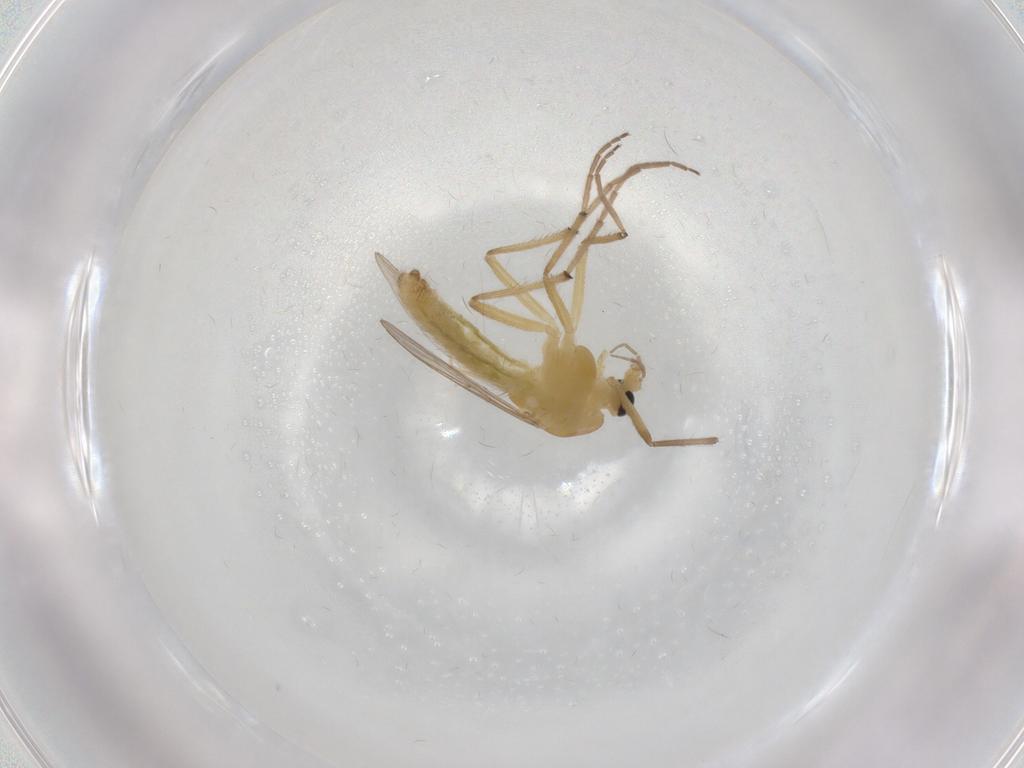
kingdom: Animalia
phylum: Arthropoda
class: Insecta
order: Diptera
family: Chironomidae
